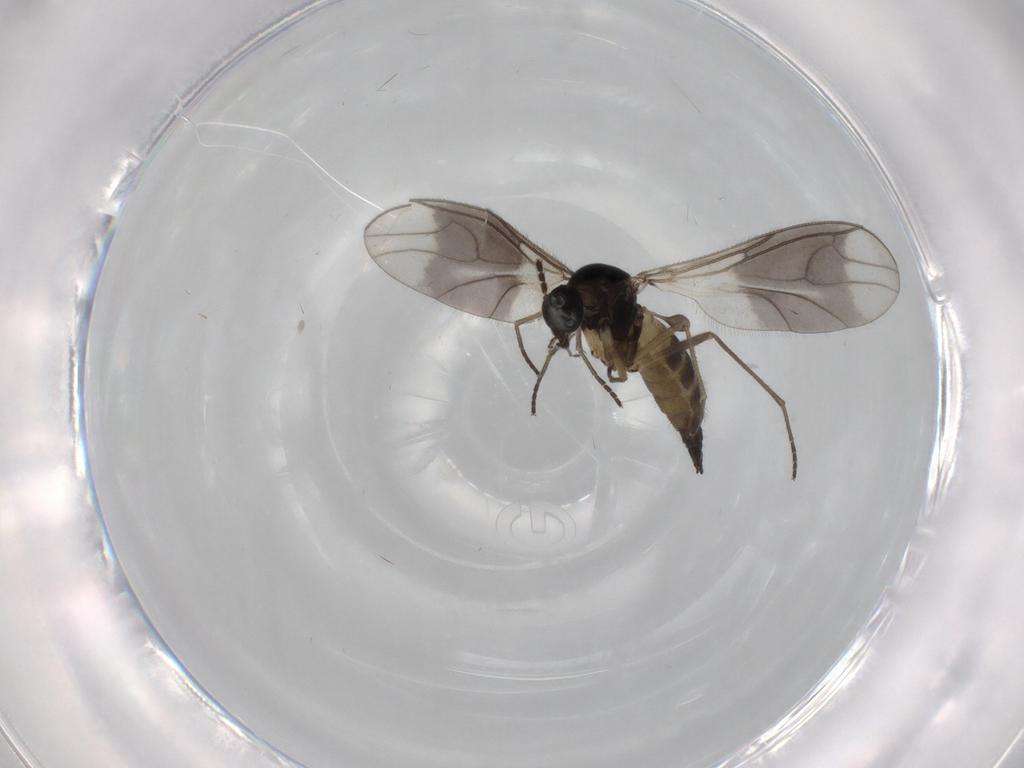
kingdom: Animalia
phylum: Arthropoda
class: Insecta
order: Diptera
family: Sciaridae
